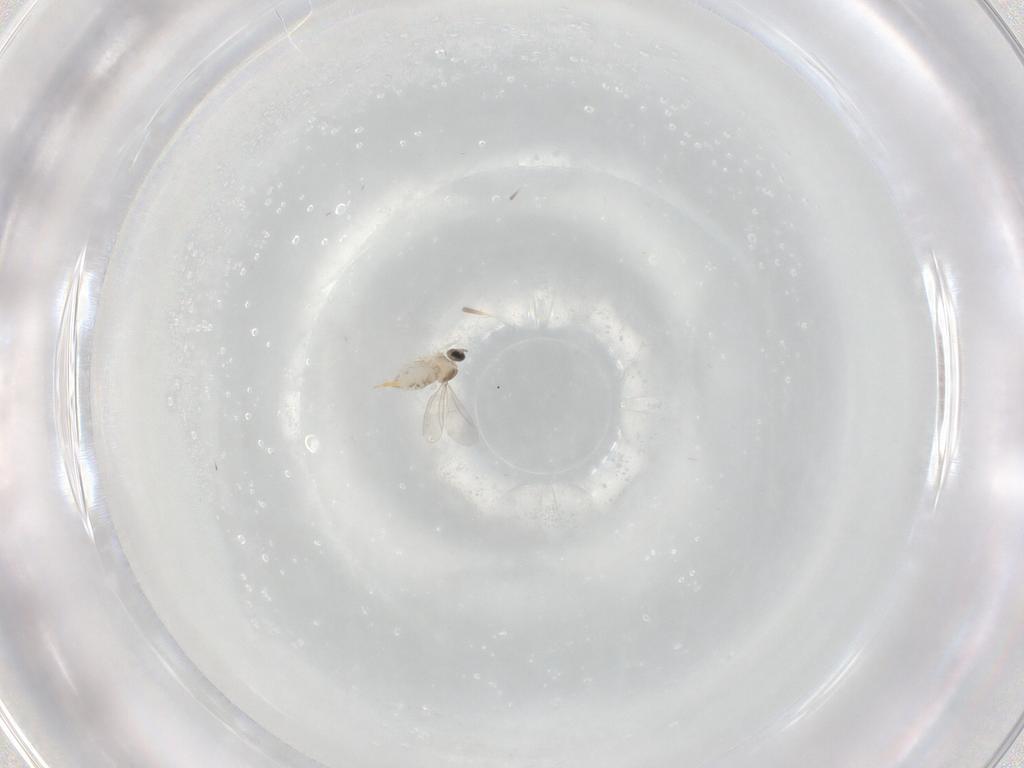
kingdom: Animalia
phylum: Arthropoda
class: Insecta
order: Diptera
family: Cecidomyiidae
